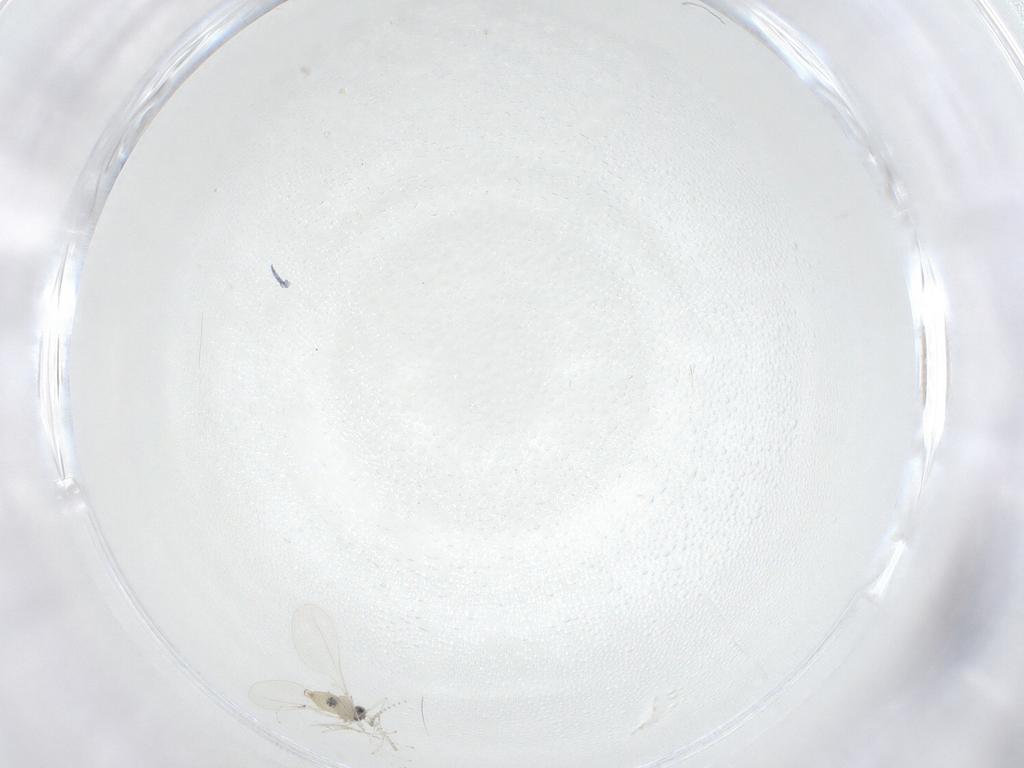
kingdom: Animalia
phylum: Arthropoda
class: Insecta
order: Diptera
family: Cecidomyiidae
